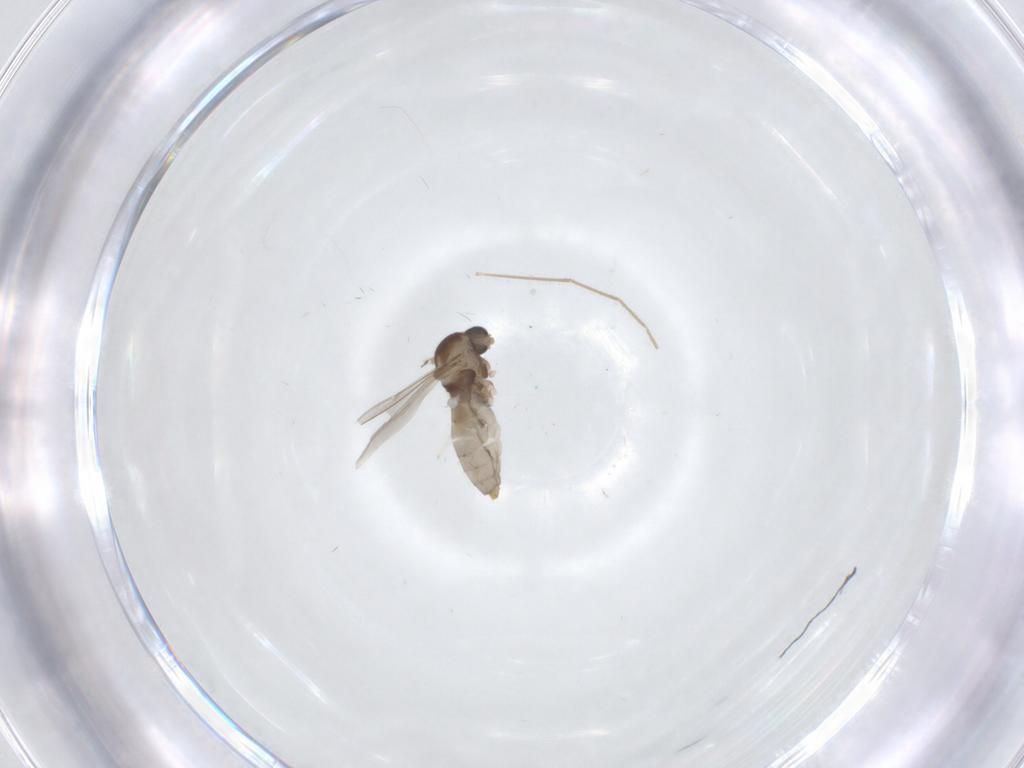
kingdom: Animalia
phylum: Arthropoda
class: Insecta
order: Diptera
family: Cecidomyiidae
